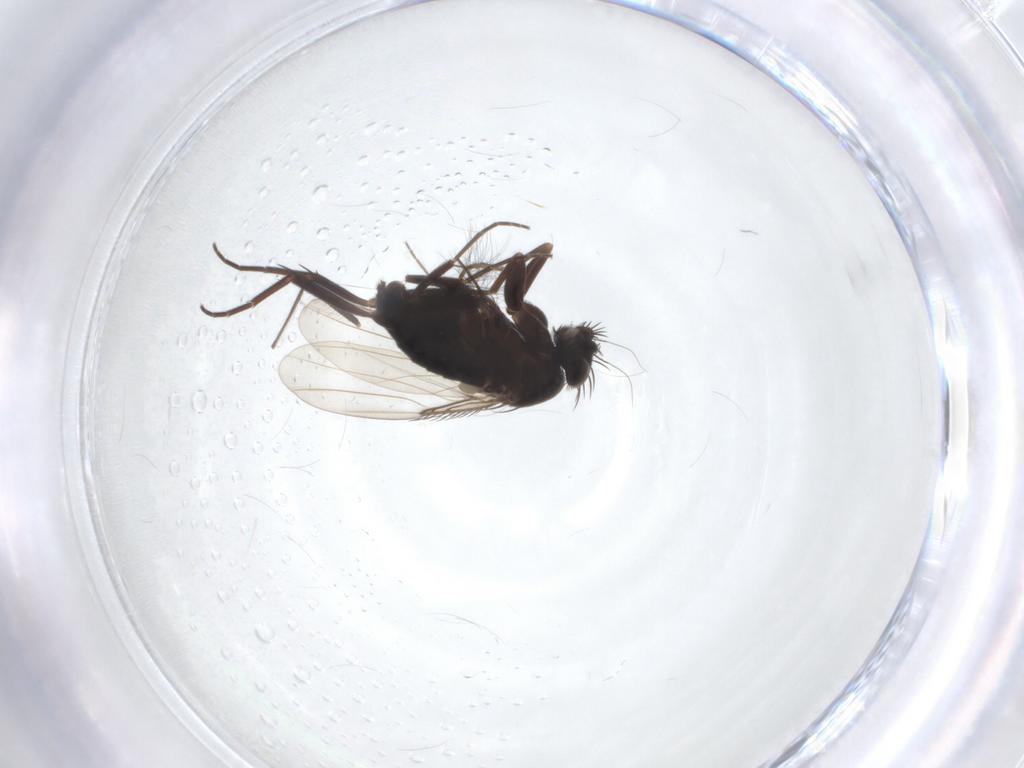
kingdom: Animalia
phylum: Arthropoda
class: Insecta
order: Diptera
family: Phoridae
